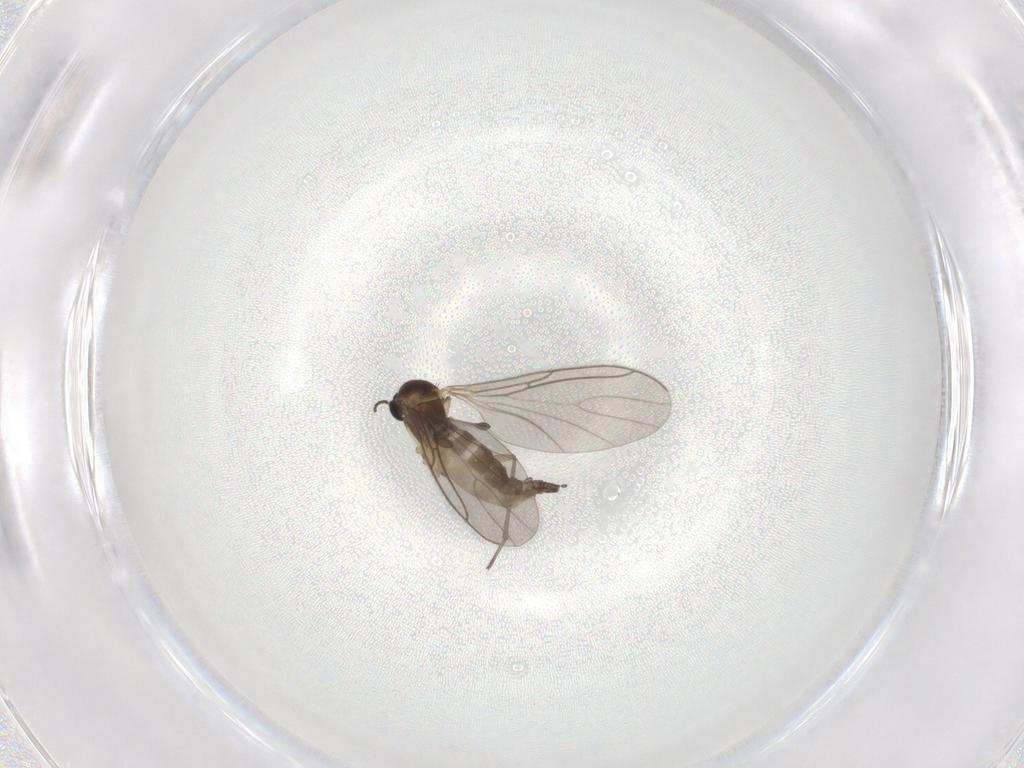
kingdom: Animalia
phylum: Arthropoda
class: Insecta
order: Diptera
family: Sciaridae
